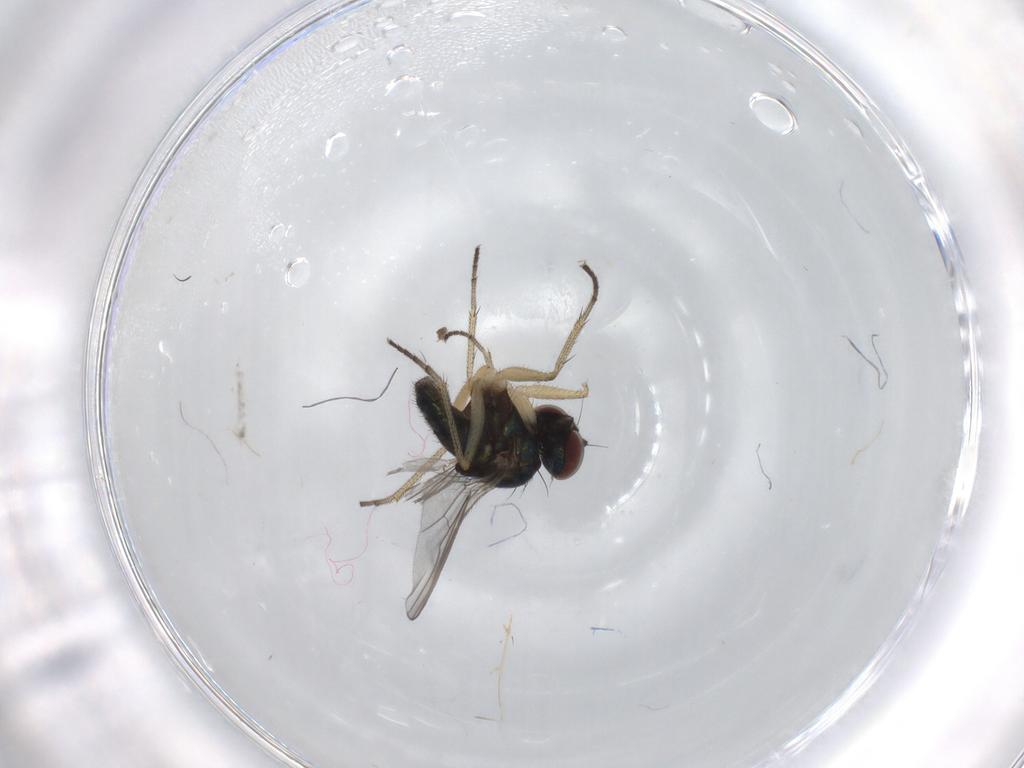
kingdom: Animalia
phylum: Arthropoda
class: Insecta
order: Diptera
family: Dolichopodidae
